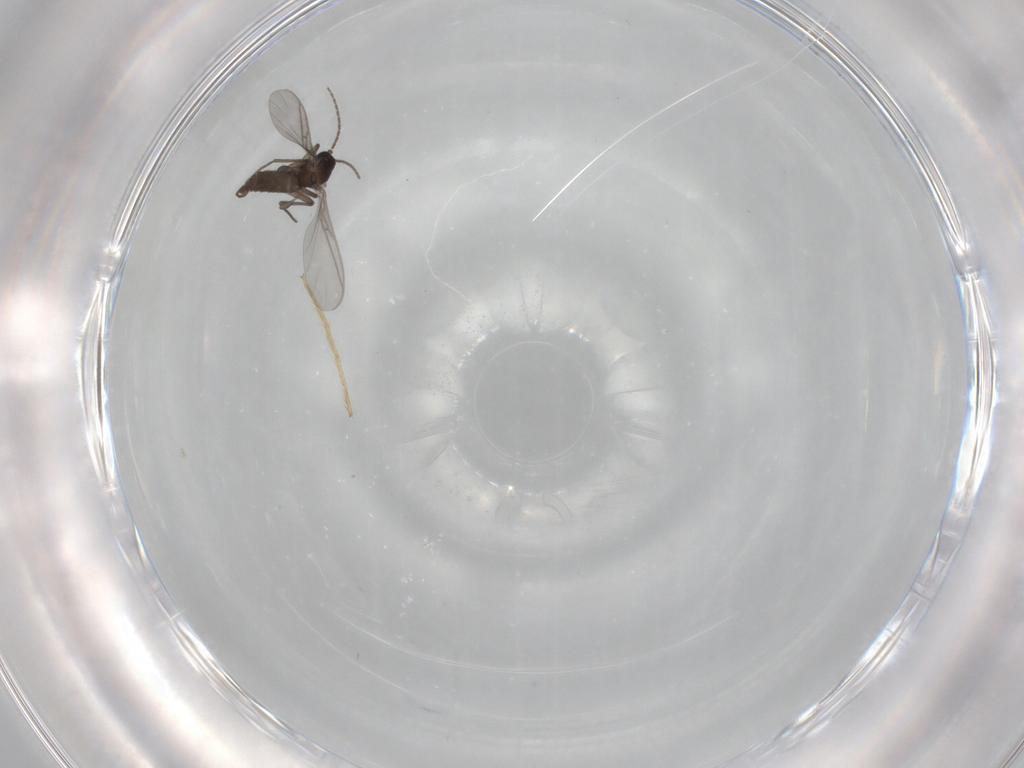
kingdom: Animalia
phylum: Arthropoda
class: Insecta
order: Diptera
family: Sciaridae
